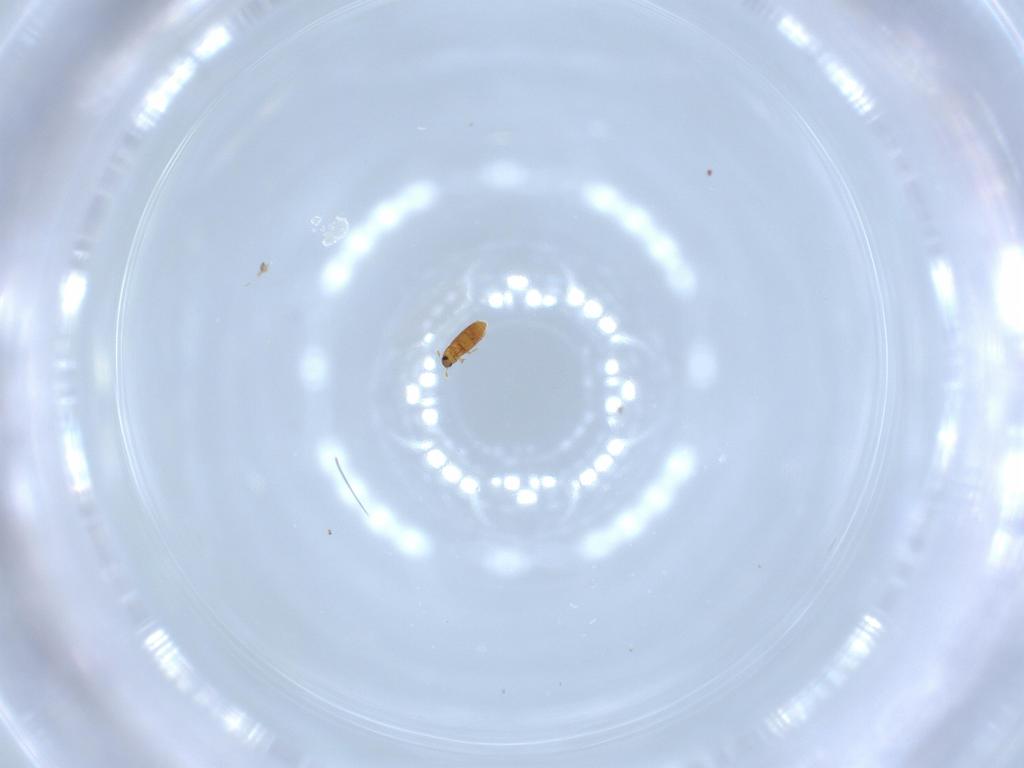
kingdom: Animalia
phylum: Arthropoda
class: Insecta
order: Coleoptera
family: Ptiliidae
